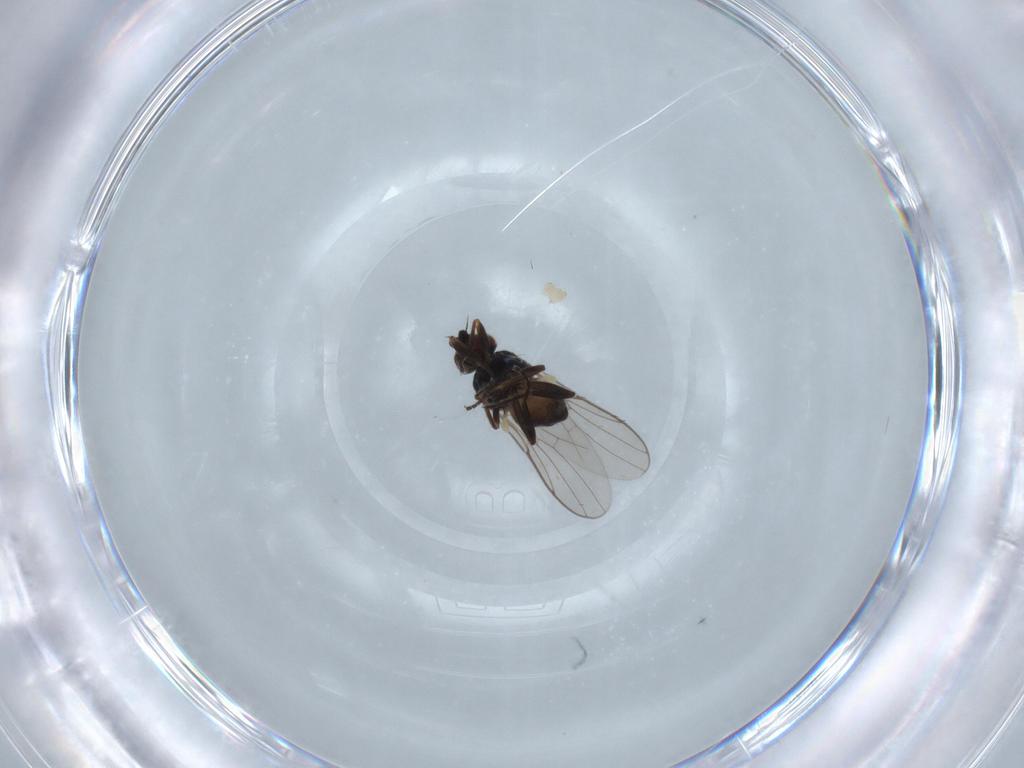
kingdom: Animalia
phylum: Arthropoda
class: Insecta
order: Diptera
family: Chloropidae
